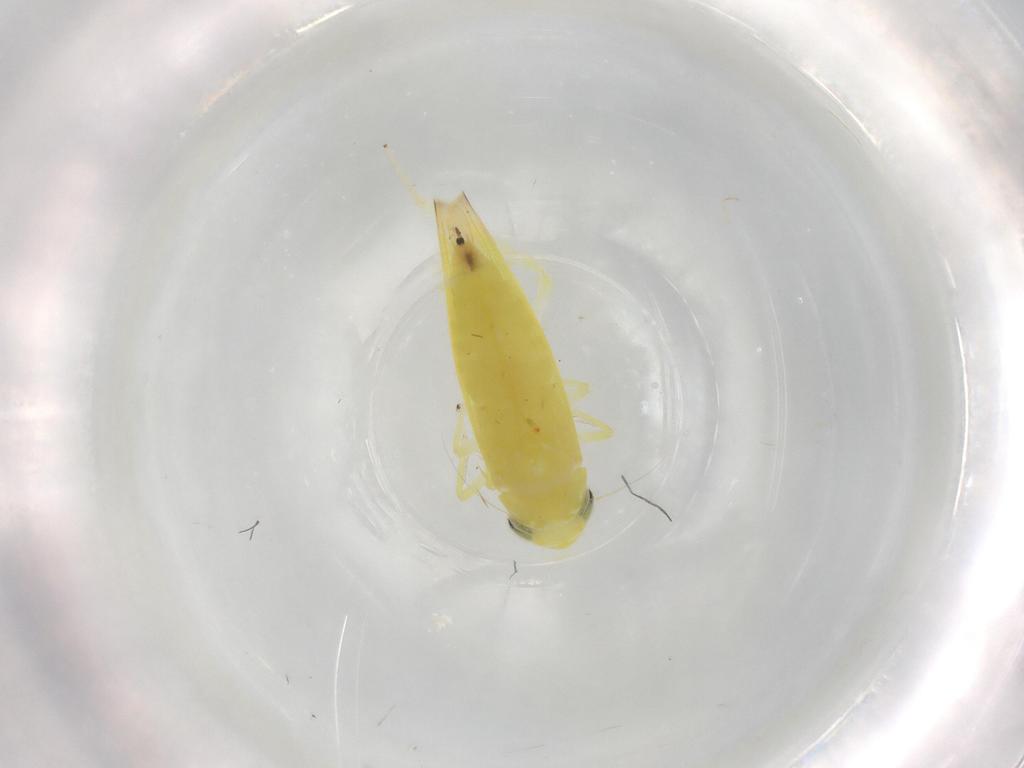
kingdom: Animalia
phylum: Arthropoda
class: Insecta
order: Hemiptera
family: Cicadellidae
